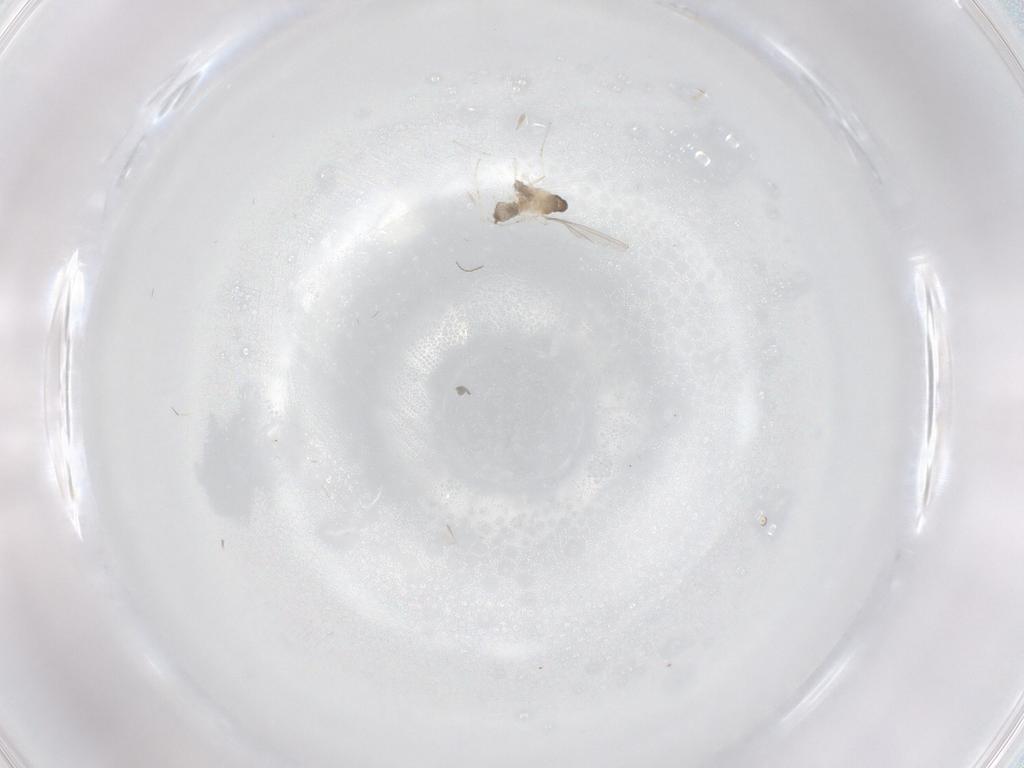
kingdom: Animalia
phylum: Arthropoda
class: Insecta
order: Diptera
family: Cecidomyiidae
